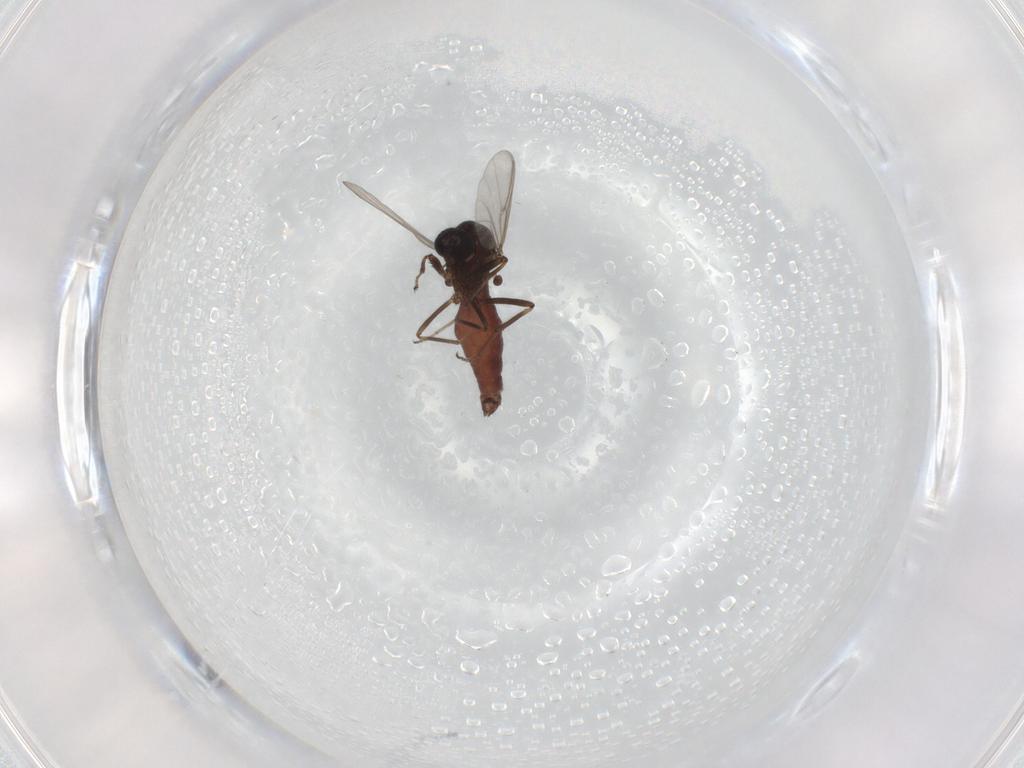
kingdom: Animalia
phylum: Arthropoda
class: Insecta
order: Diptera
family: Ceratopogonidae
